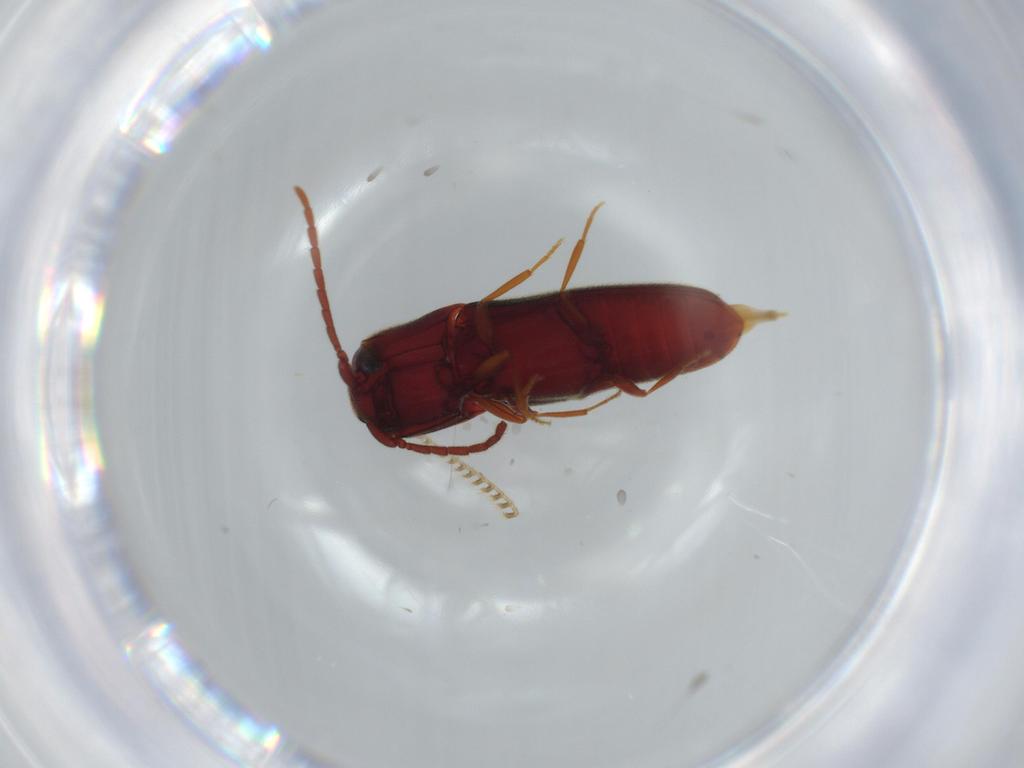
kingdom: Animalia
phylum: Arthropoda
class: Insecta
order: Coleoptera
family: Eucnemidae
